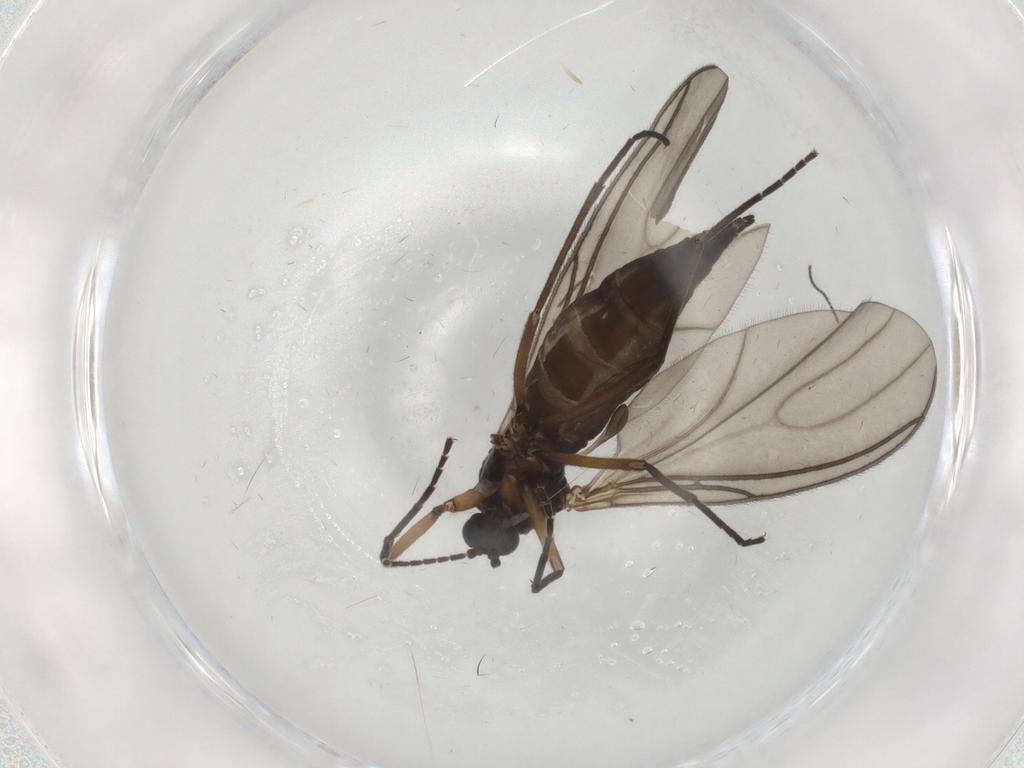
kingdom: Animalia
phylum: Arthropoda
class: Insecta
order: Diptera
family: Sciaridae
